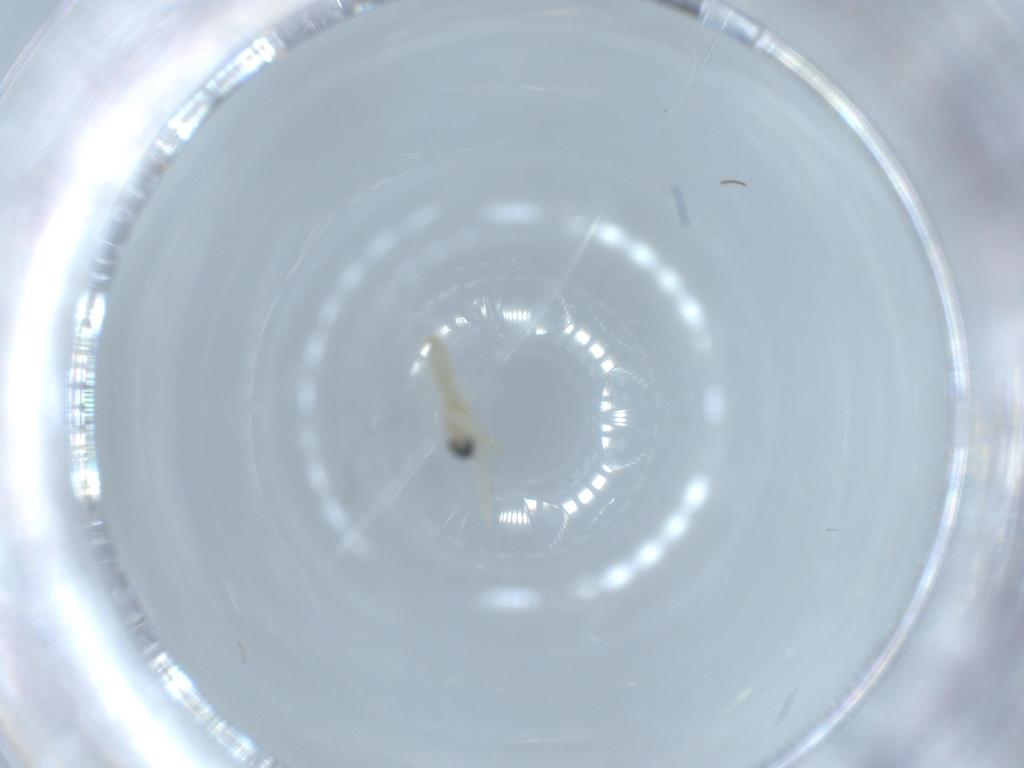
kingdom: Animalia
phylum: Arthropoda
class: Insecta
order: Diptera
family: Cecidomyiidae
